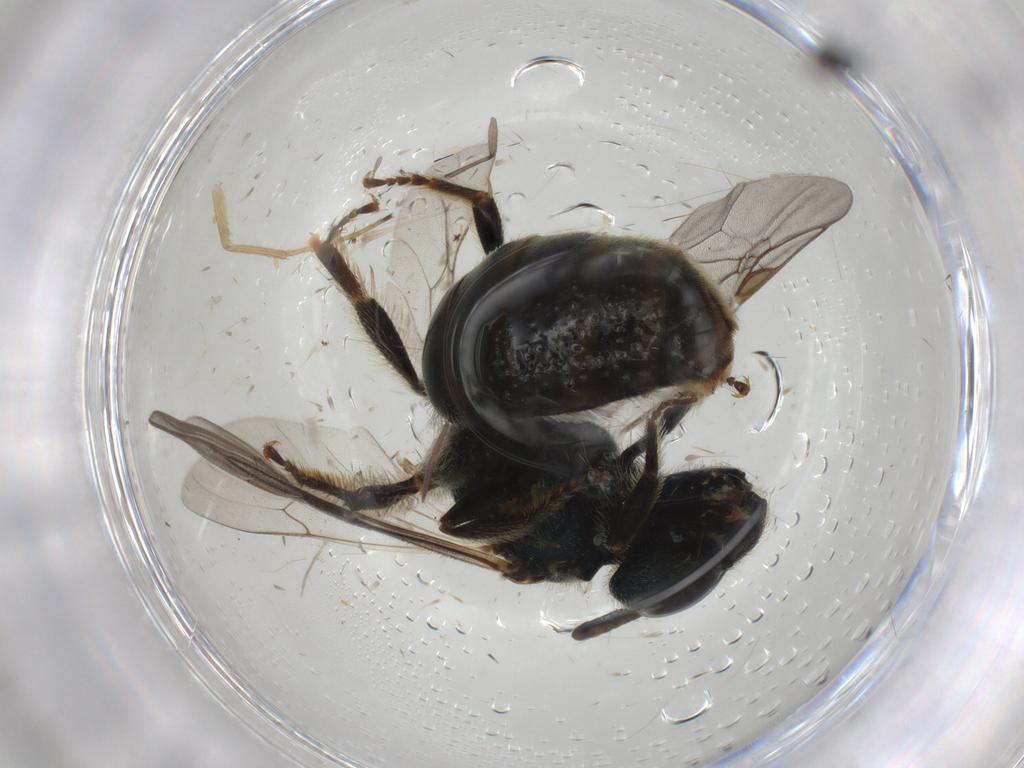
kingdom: Animalia
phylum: Arthropoda
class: Insecta
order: Hymenoptera
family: Halictidae
